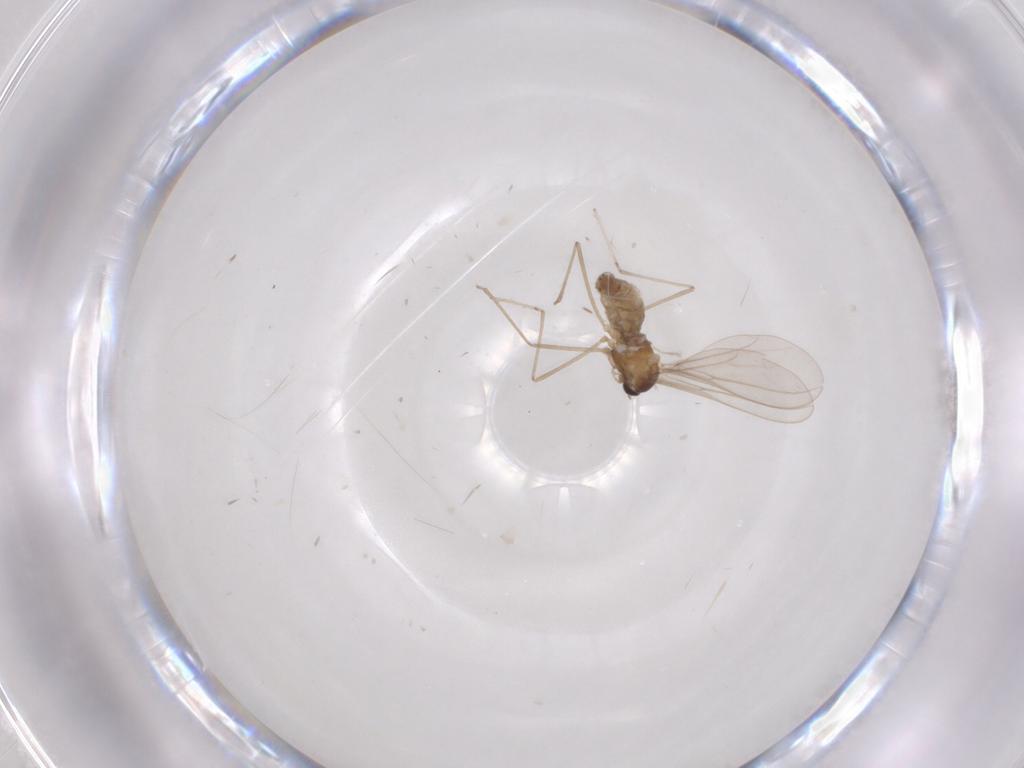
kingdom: Animalia
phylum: Arthropoda
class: Insecta
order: Diptera
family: Cecidomyiidae
